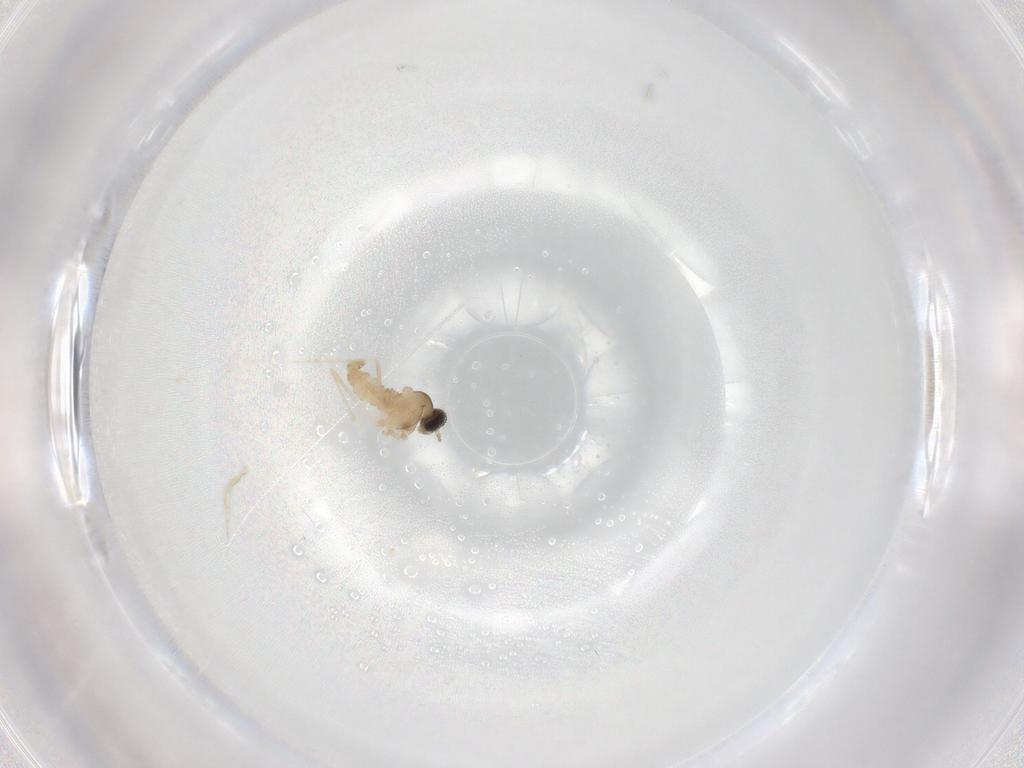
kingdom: Animalia
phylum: Arthropoda
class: Insecta
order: Diptera
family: Cecidomyiidae
